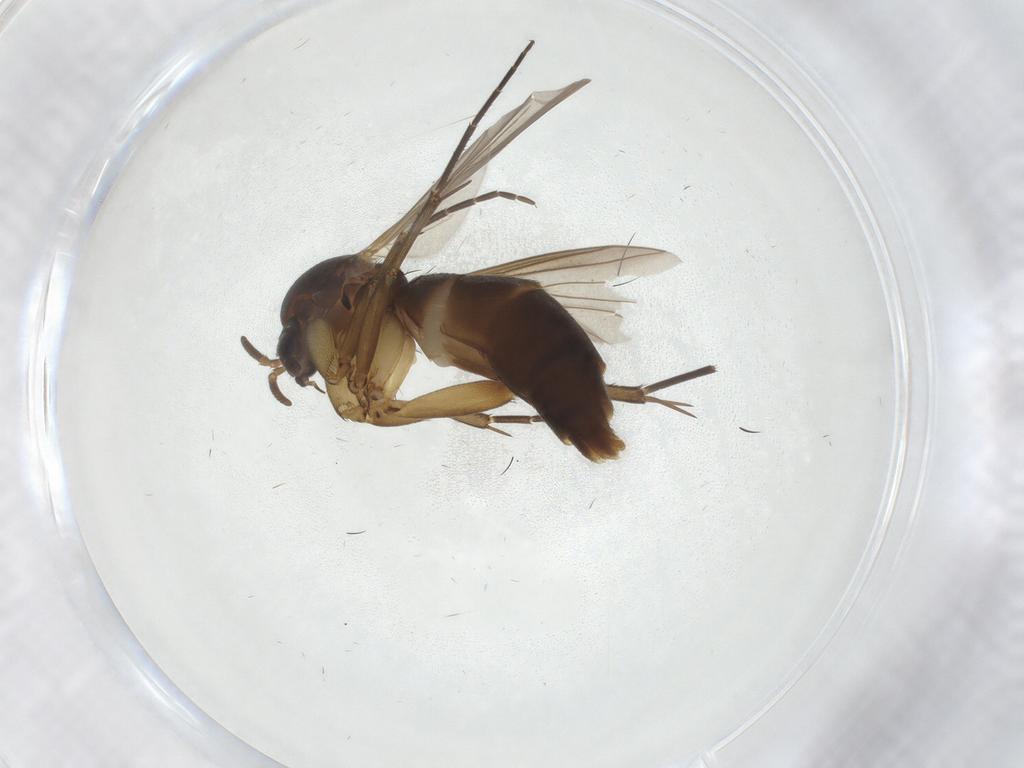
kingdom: Animalia
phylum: Arthropoda
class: Insecta
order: Diptera
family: Mycetophilidae
